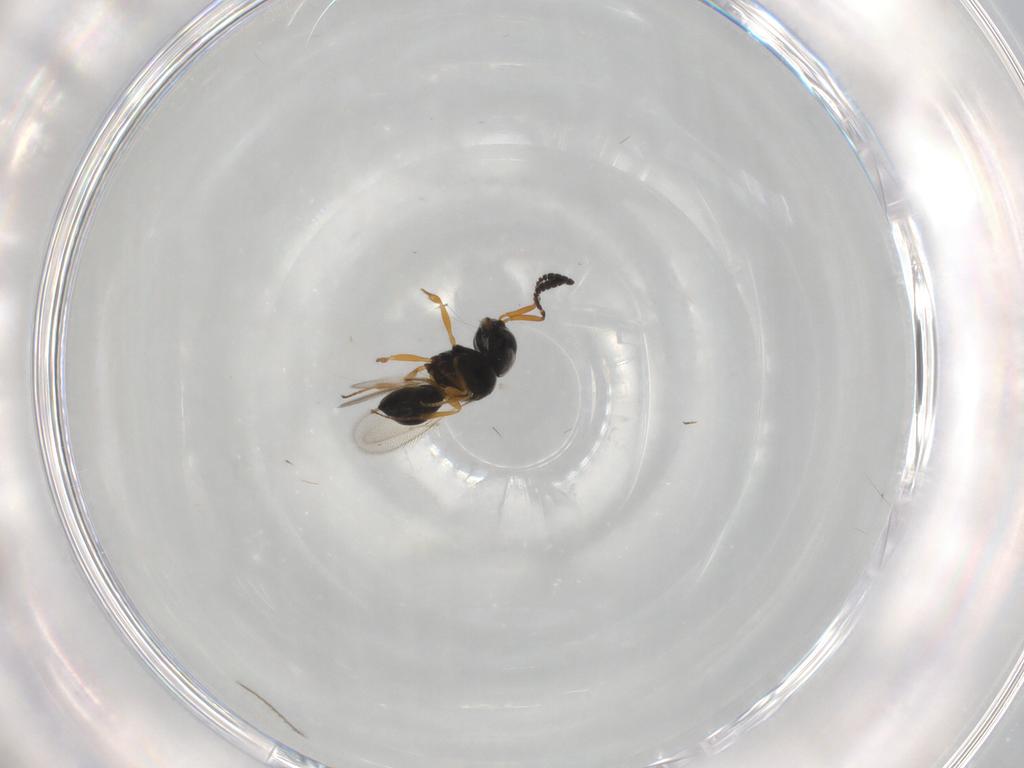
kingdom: Animalia
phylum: Arthropoda
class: Insecta
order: Hymenoptera
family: Scelionidae
